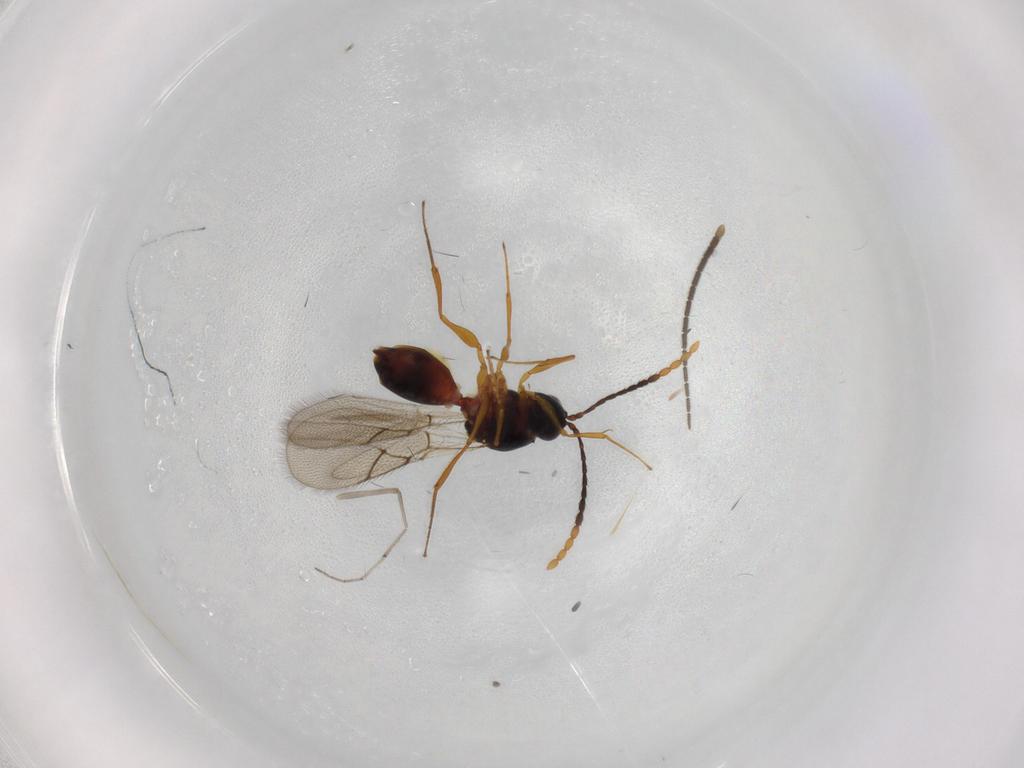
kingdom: Animalia
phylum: Arthropoda
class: Insecta
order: Hymenoptera
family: Figitidae
